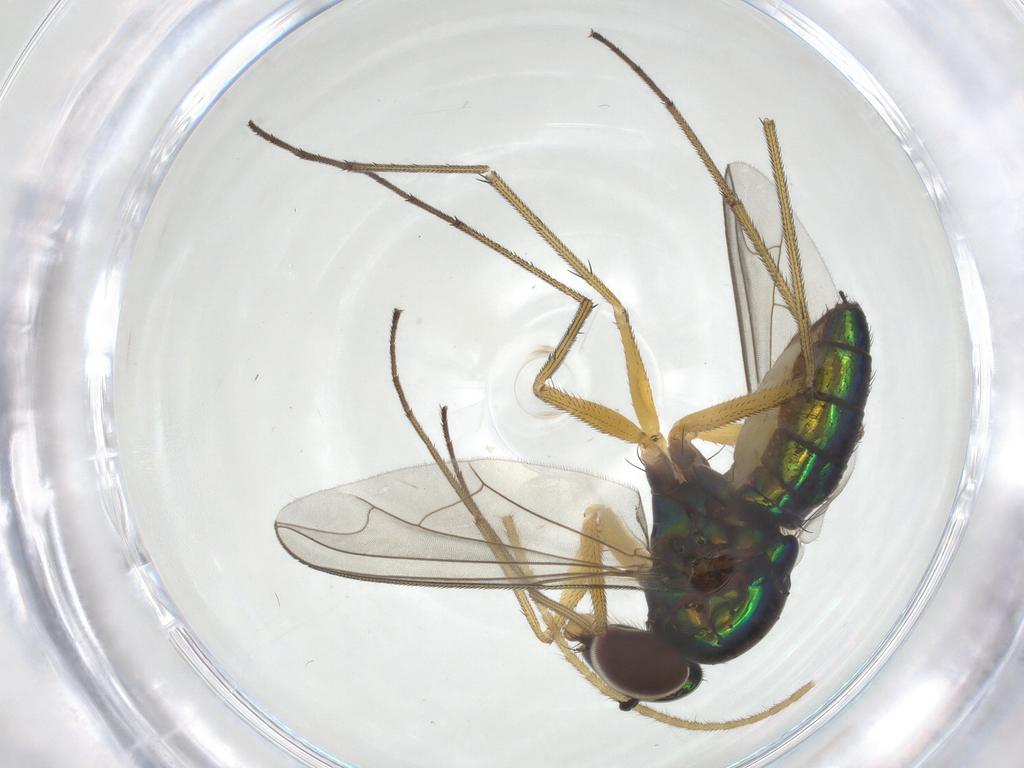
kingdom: Animalia
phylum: Arthropoda
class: Insecta
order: Diptera
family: Dolichopodidae
